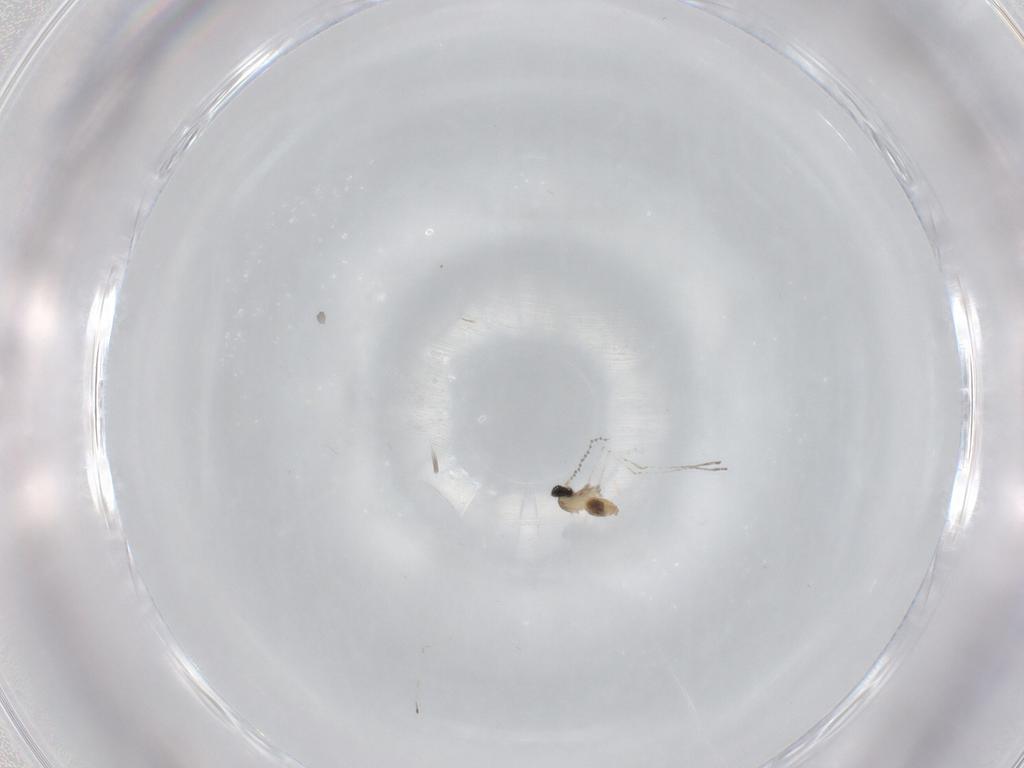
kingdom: Animalia
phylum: Arthropoda
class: Insecta
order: Diptera
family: Cecidomyiidae
